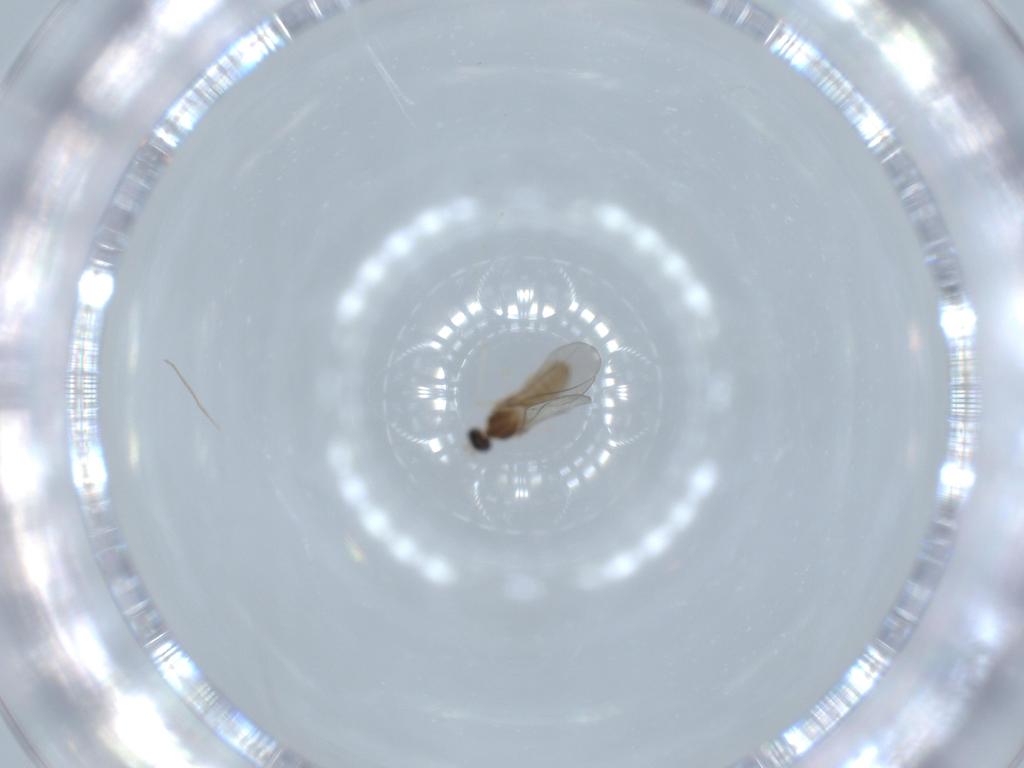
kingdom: Animalia
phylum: Arthropoda
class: Insecta
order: Diptera
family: Cecidomyiidae
